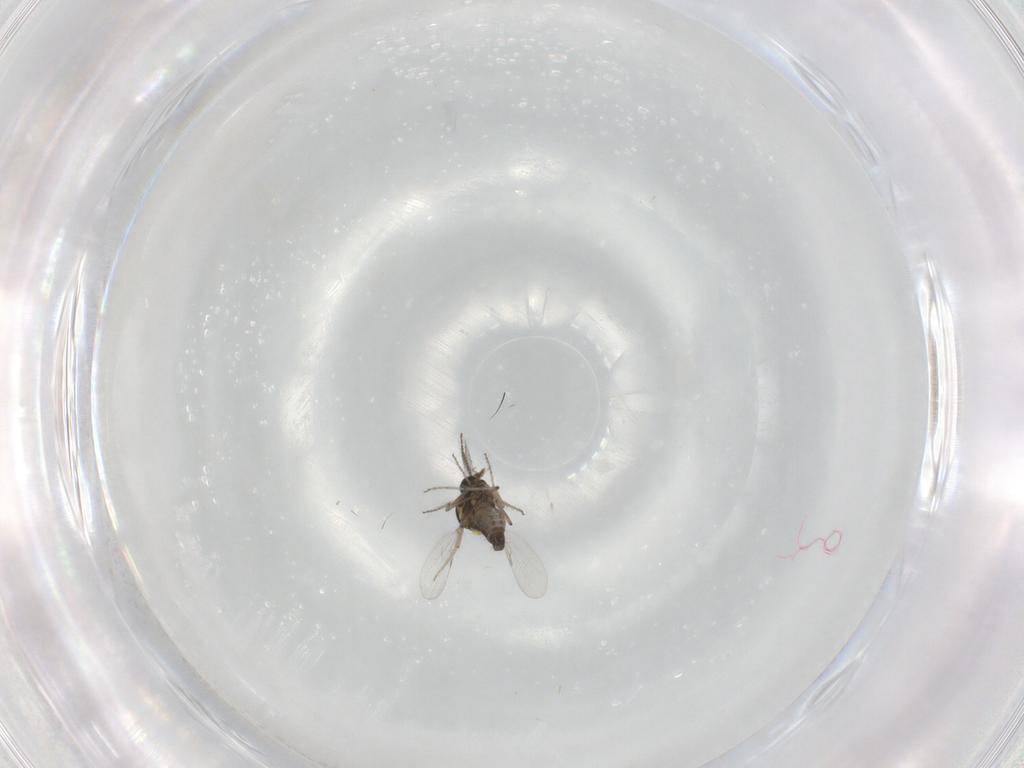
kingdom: Animalia
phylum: Arthropoda
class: Insecta
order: Diptera
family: Ceratopogonidae
